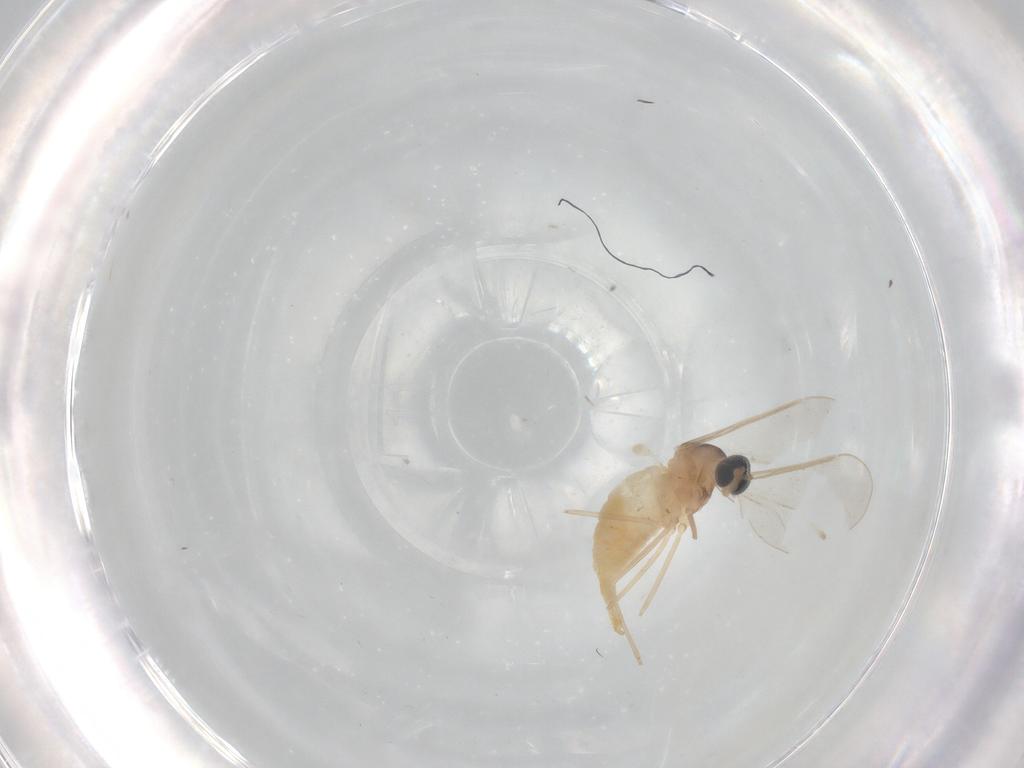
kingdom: Animalia
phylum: Arthropoda
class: Insecta
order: Diptera
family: Cecidomyiidae
